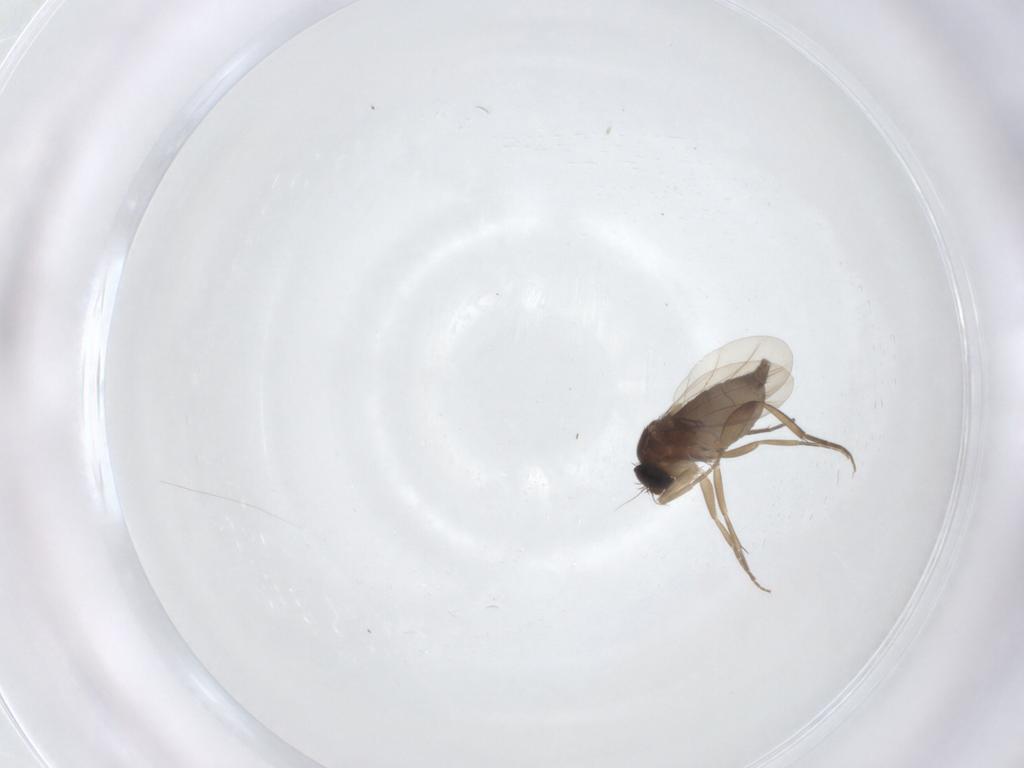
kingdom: Animalia
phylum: Arthropoda
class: Insecta
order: Diptera
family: Phoridae
